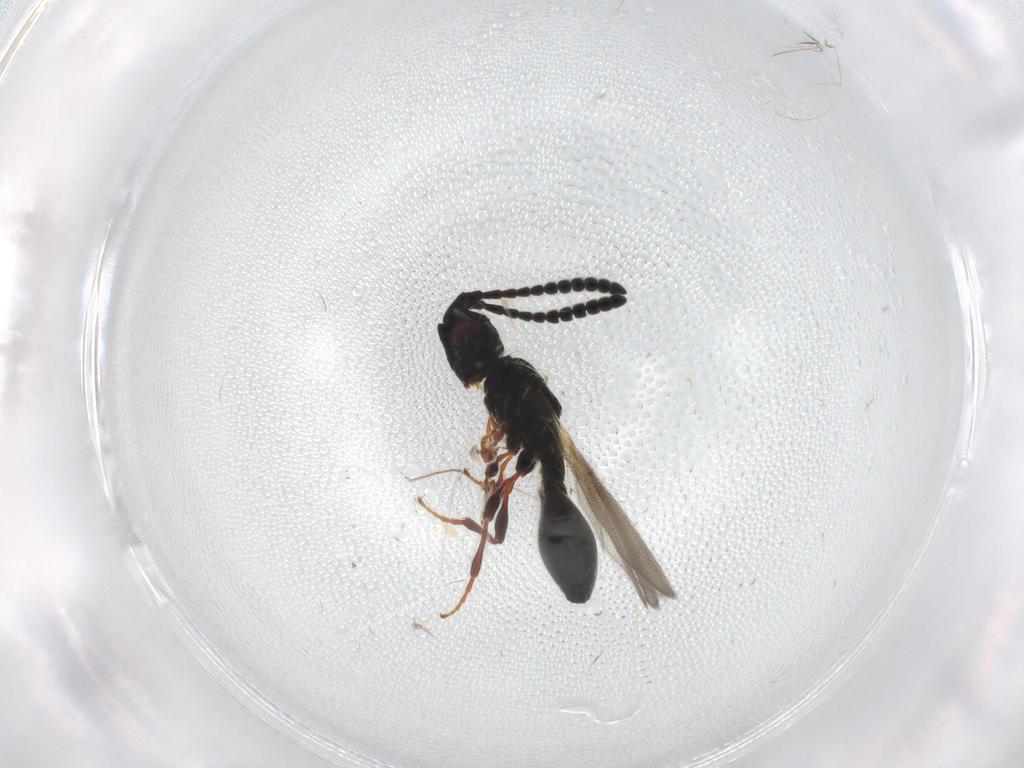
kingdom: Animalia
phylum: Arthropoda
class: Insecta
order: Hymenoptera
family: Diapriidae
